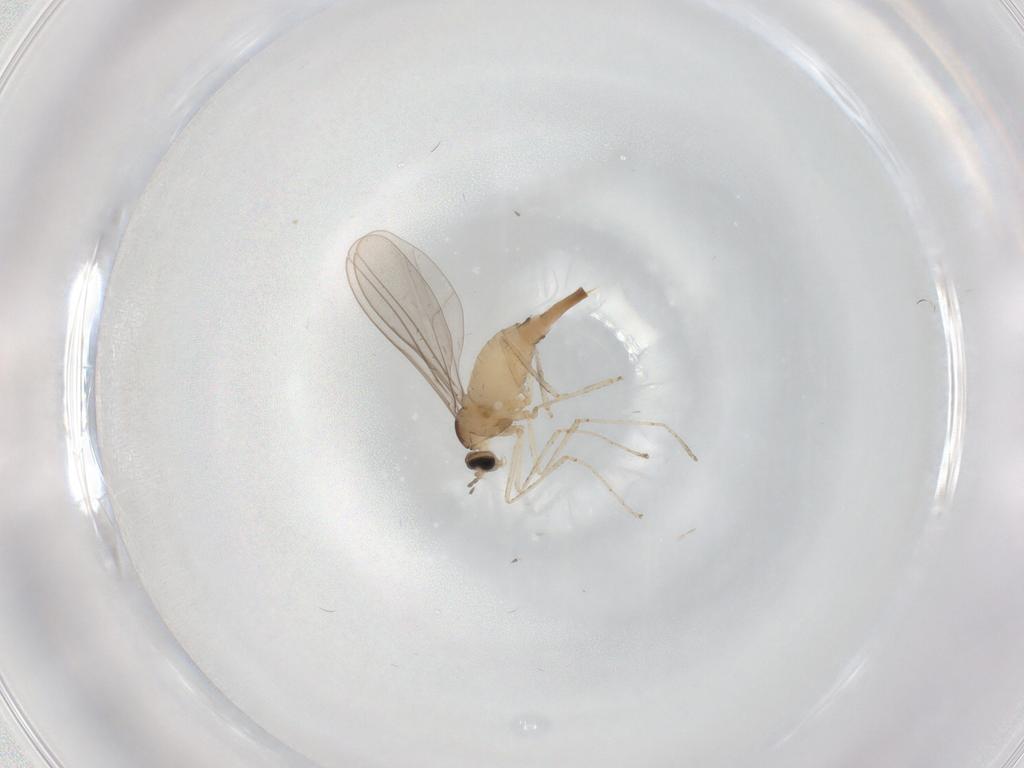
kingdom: Animalia
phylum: Arthropoda
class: Insecta
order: Diptera
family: Cecidomyiidae
